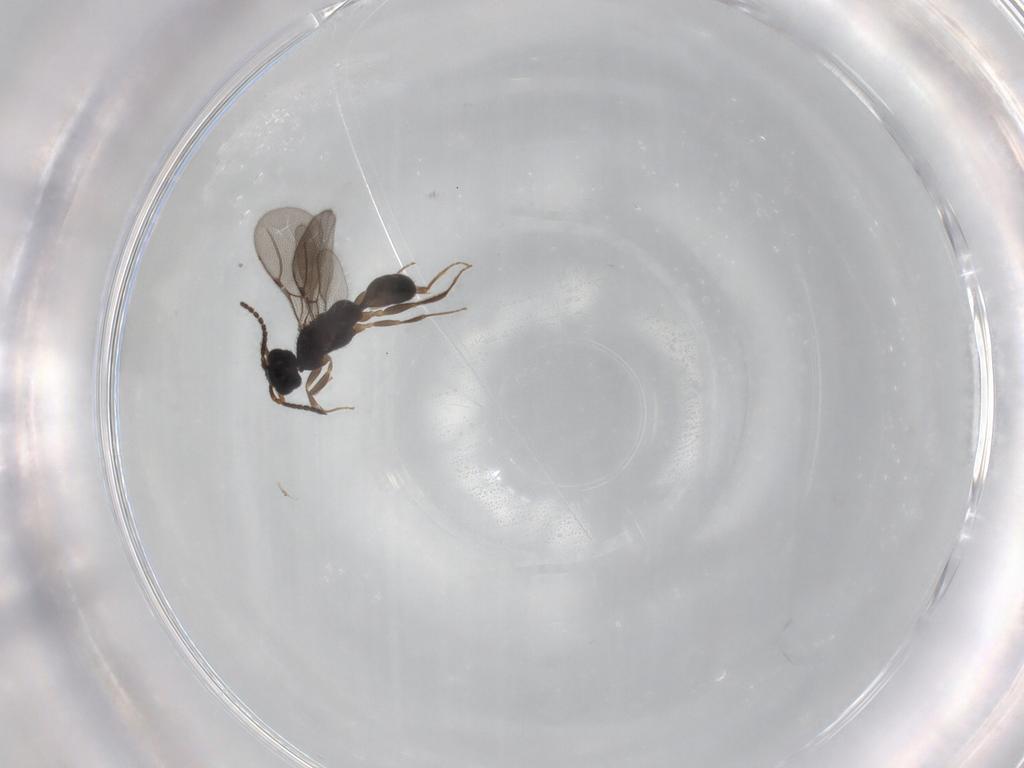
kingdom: Animalia
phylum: Arthropoda
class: Insecta
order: Hymenoptera
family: Bethylidae
